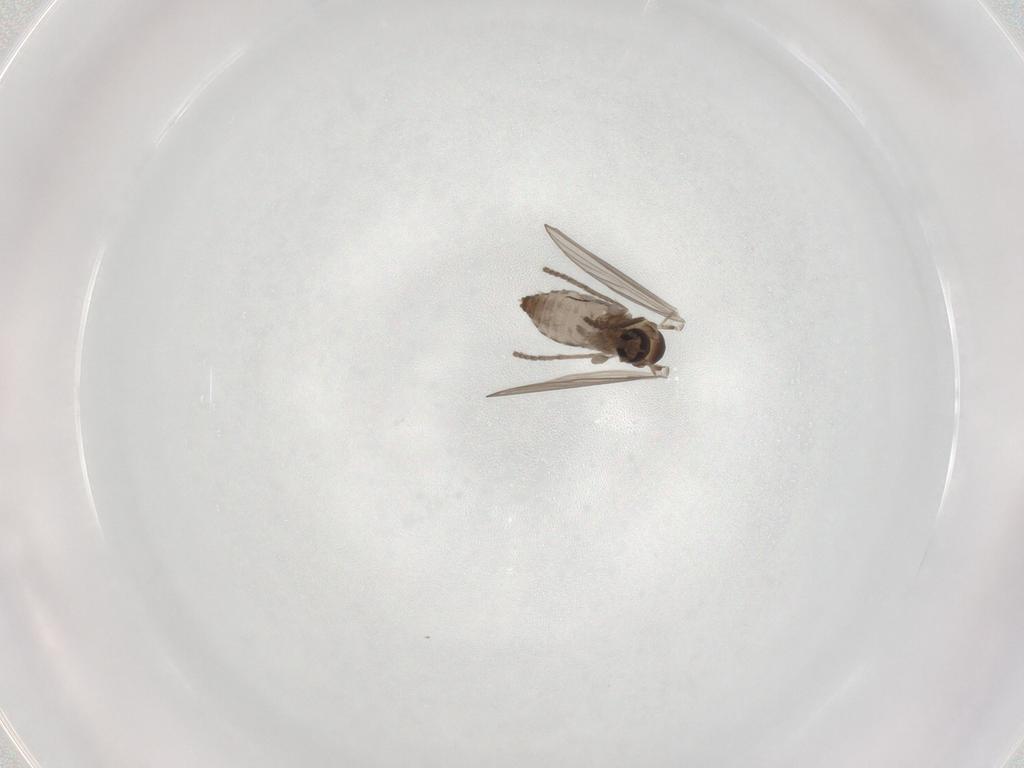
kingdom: Animalia
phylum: Arthropoda
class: Insecta
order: Diptera
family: Psychodidae
